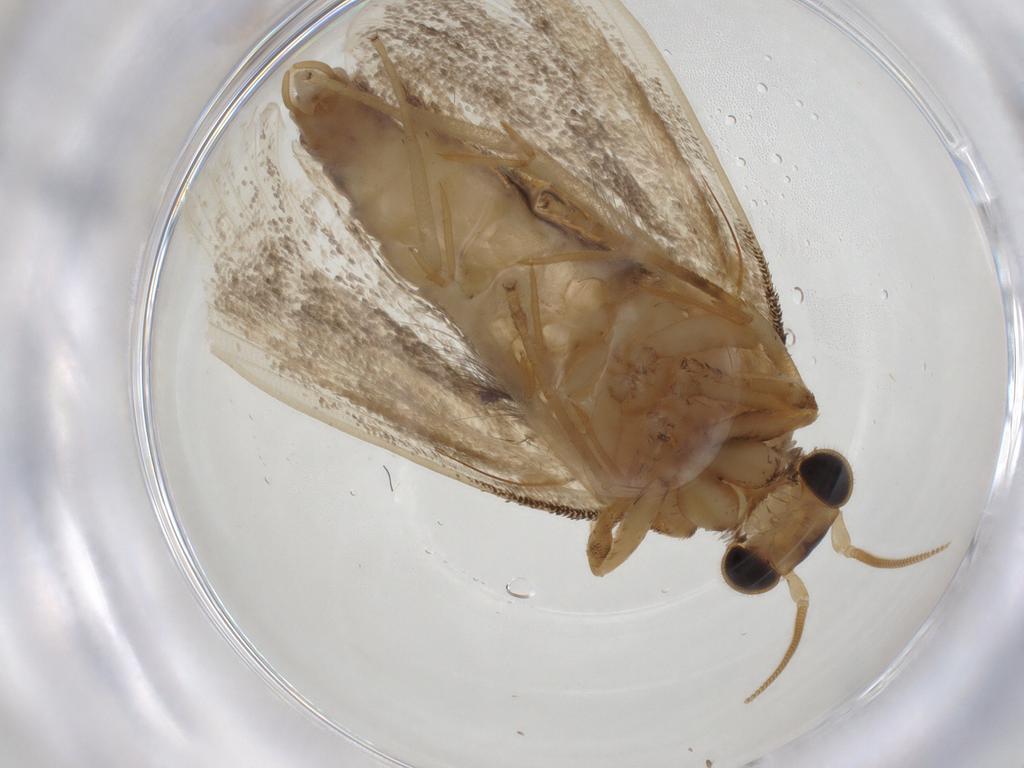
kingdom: Animalia
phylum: Arthropoda
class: Insecta
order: Lepidoptera
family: Tineidae
